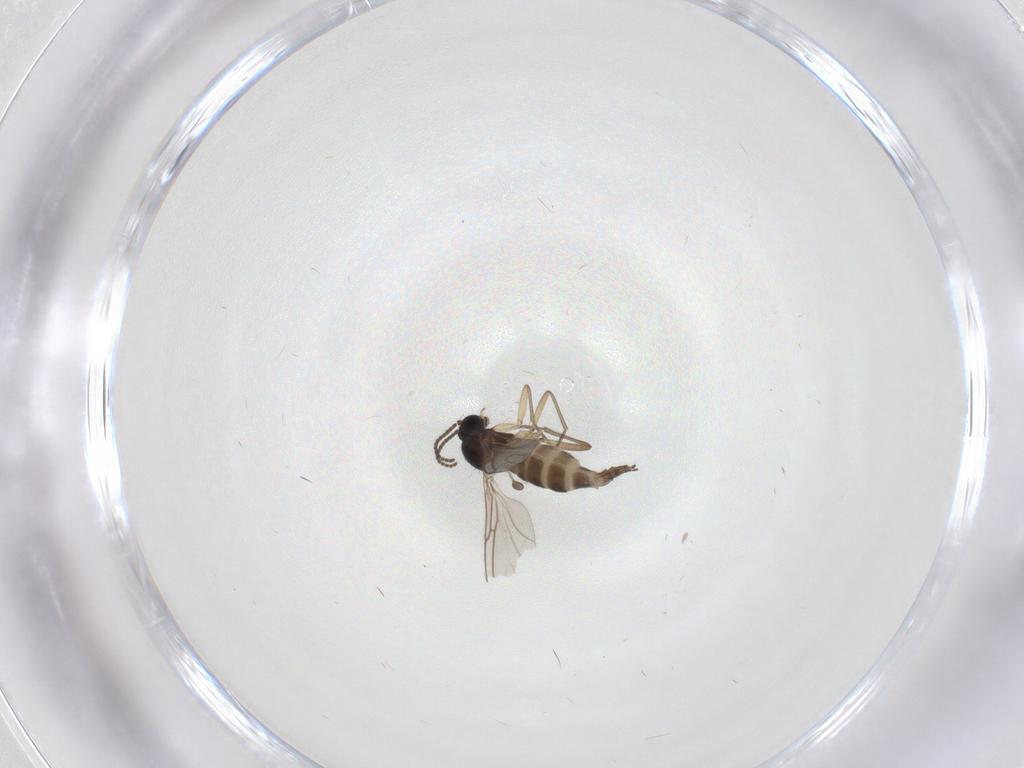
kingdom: Animalia
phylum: Arthropoda
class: Insecta
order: Diptera
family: Sciaridae
